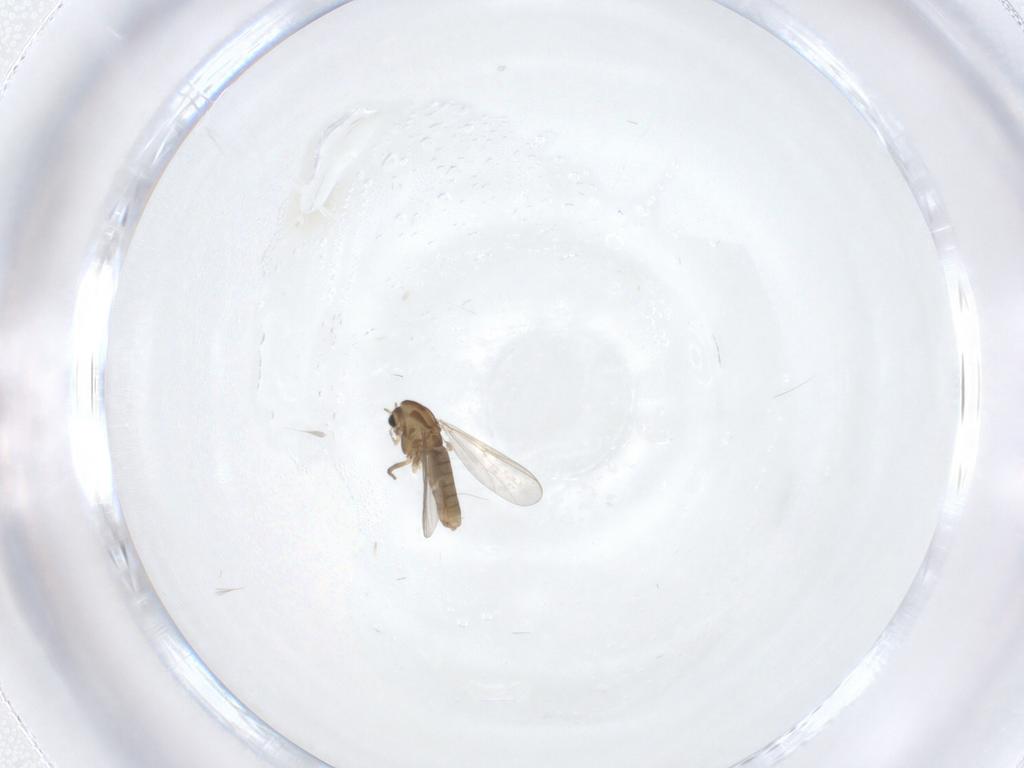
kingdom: Animalia
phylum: Arthropoda
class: Insecta
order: Diptera
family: Chironomidae
